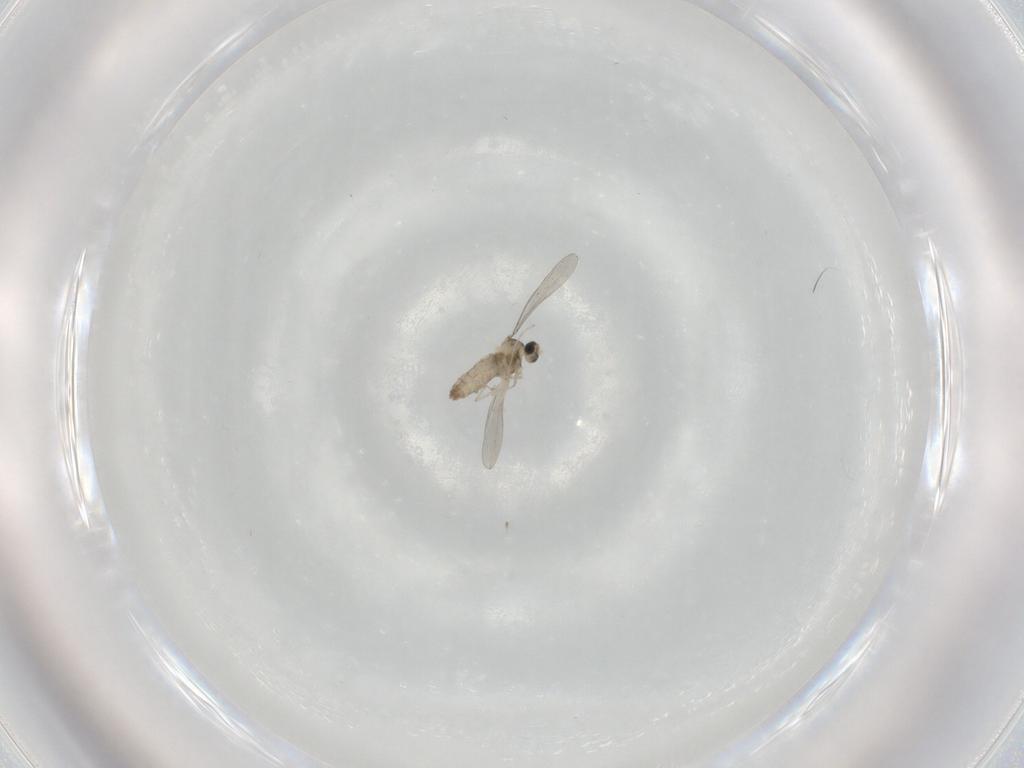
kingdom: Animalia
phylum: Arthropoda
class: Insecta
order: Diptera
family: Cecidomyiidae
